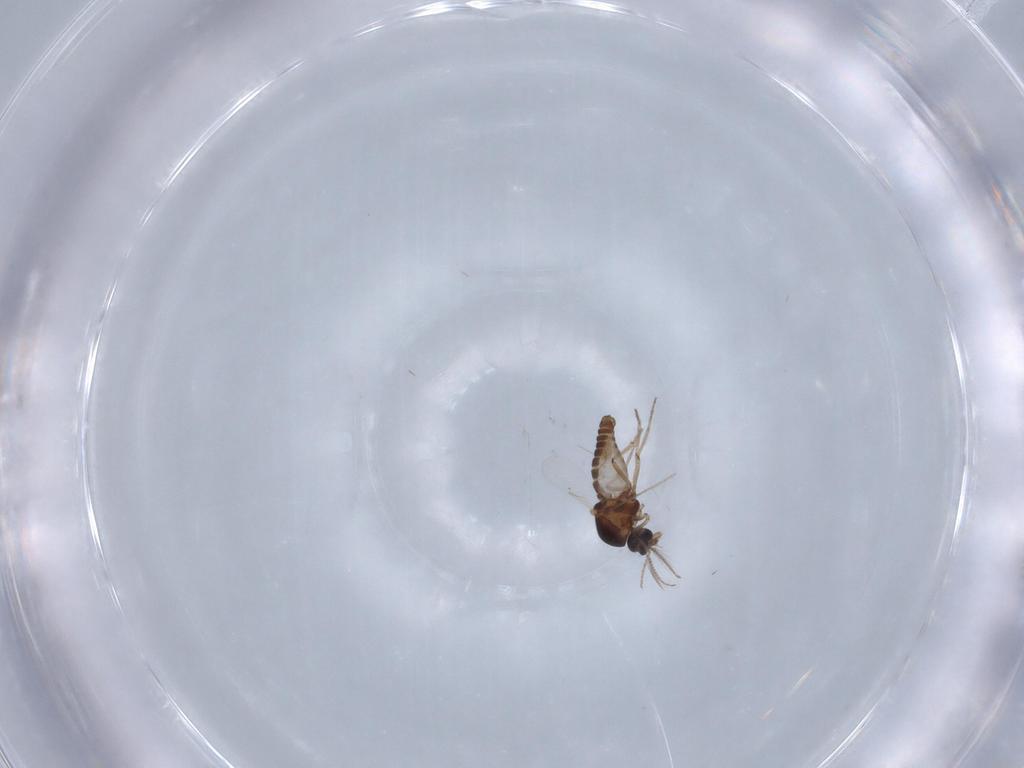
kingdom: Animalia
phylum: Arthropoda
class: Insecta
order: Diptera
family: Ceratopogonidae
